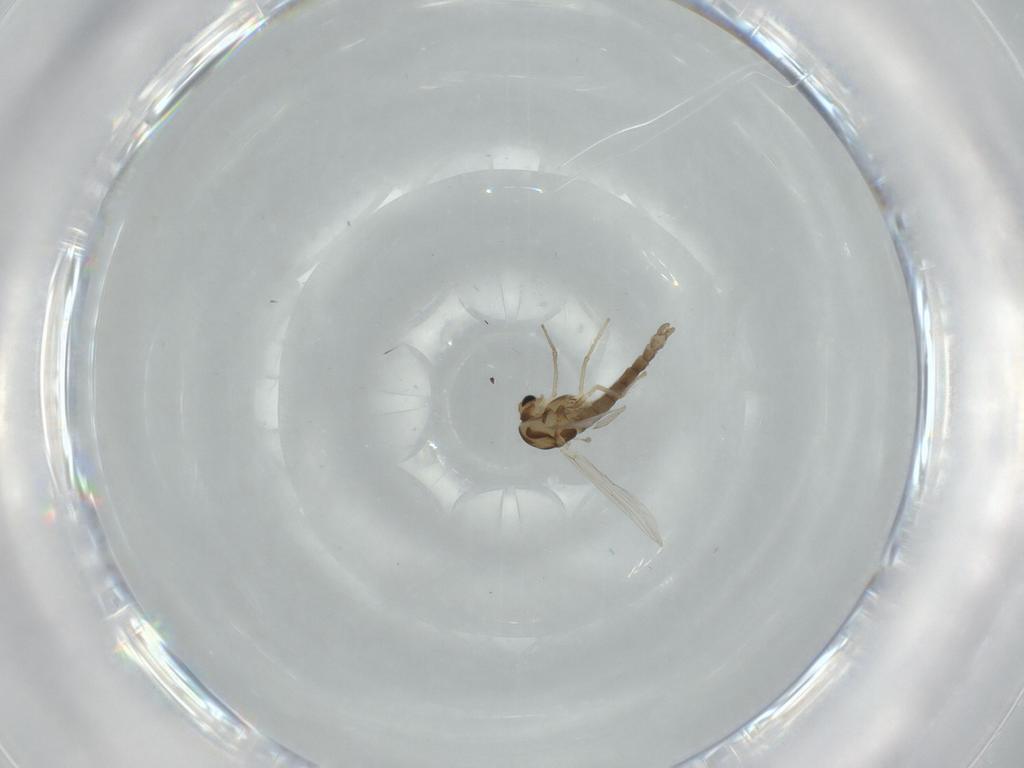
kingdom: Animalia
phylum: Arthropoda
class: Insecta
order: Diptera
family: Chironomidae
